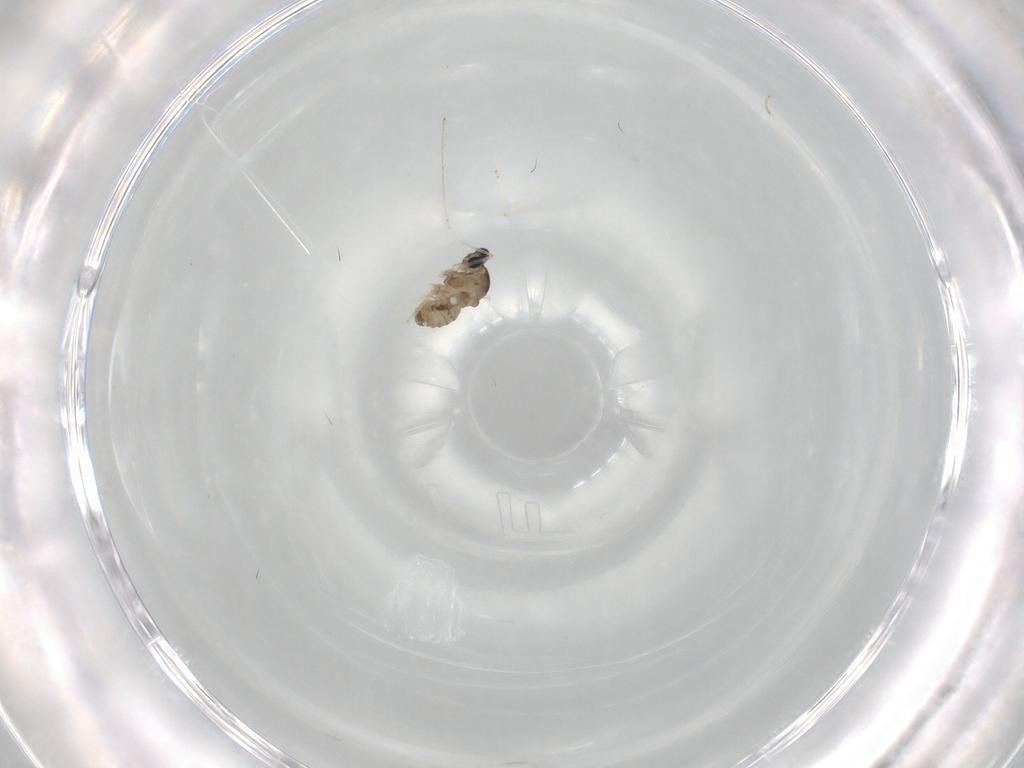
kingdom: Animalia
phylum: Arthropoda
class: Insecta
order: Diptera
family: Cecidomyiidae
